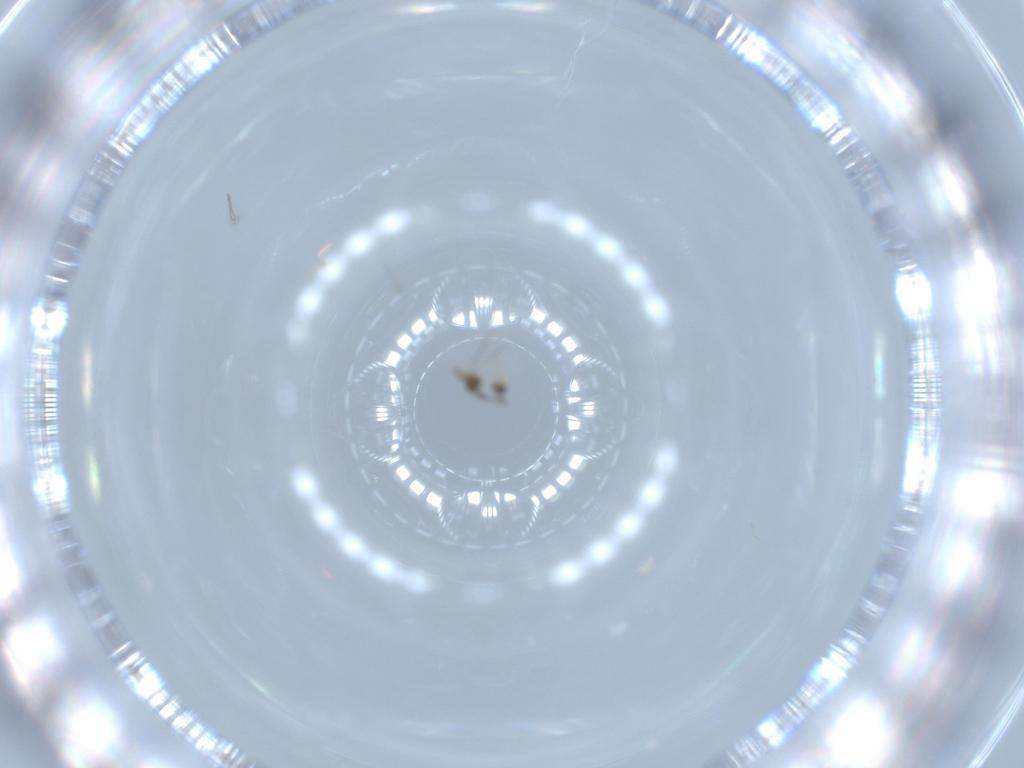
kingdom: Animalia
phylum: Arthropoda
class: Insecta
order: Hymenoptera
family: Mymaridae
